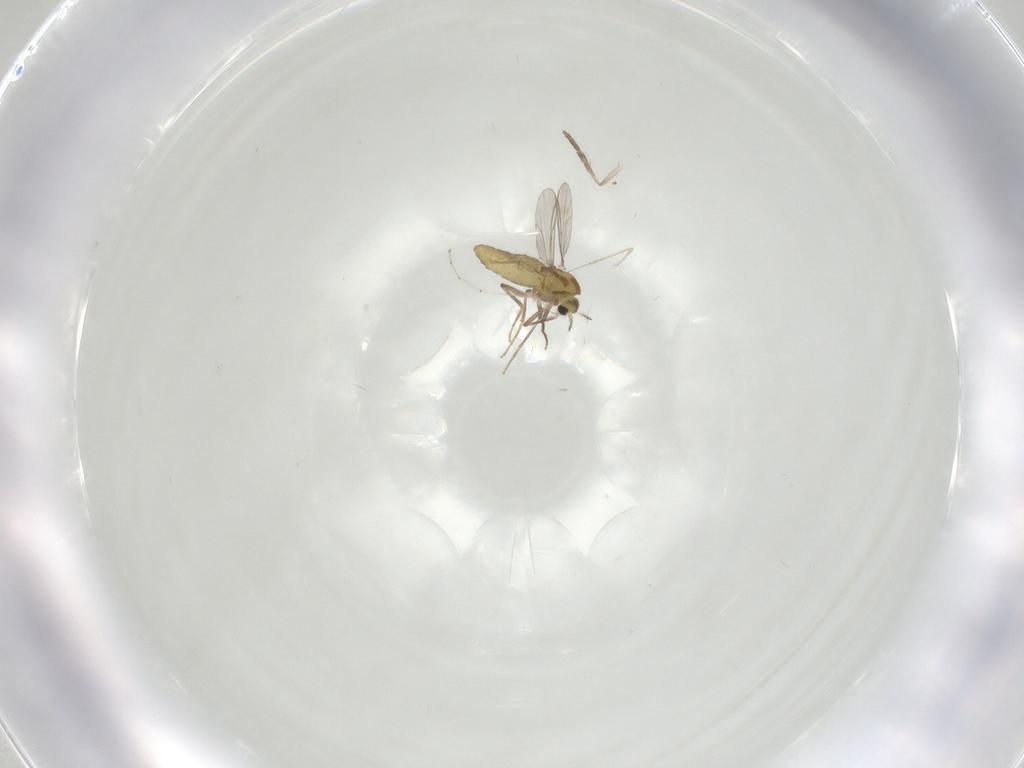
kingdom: Animalia
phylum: Arthropoda
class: Insecta
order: Diptera
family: Chironomidae
